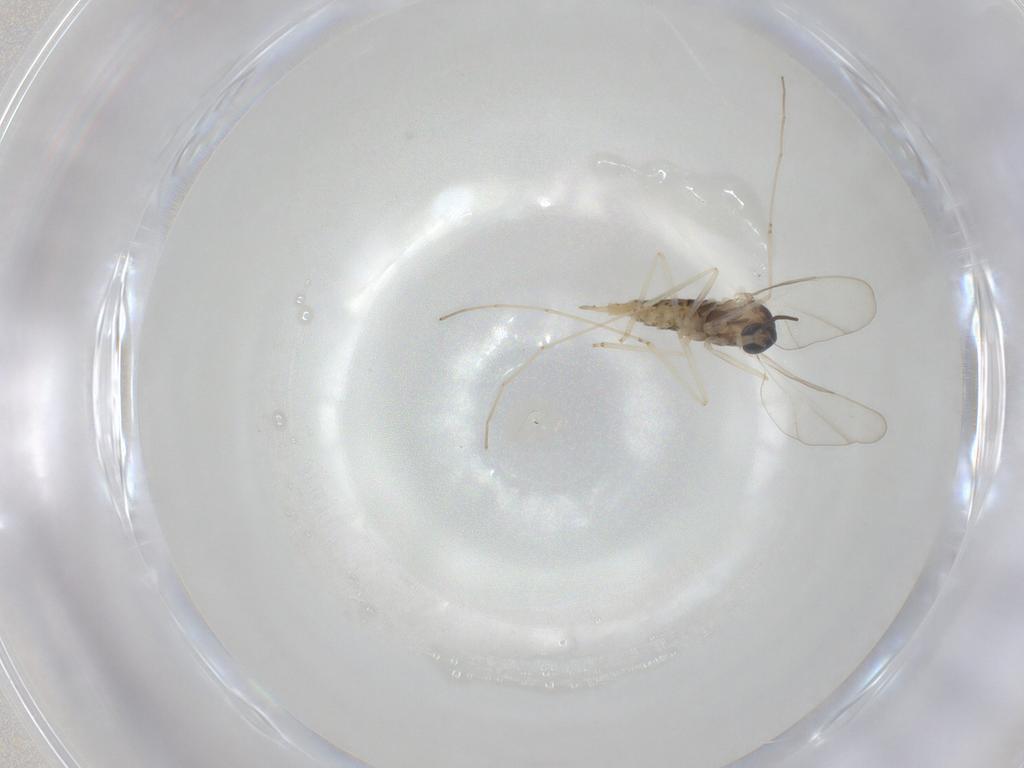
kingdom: Animalia
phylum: Arthropoda
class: Insecta
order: Diptera
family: Cecidomyiidae
